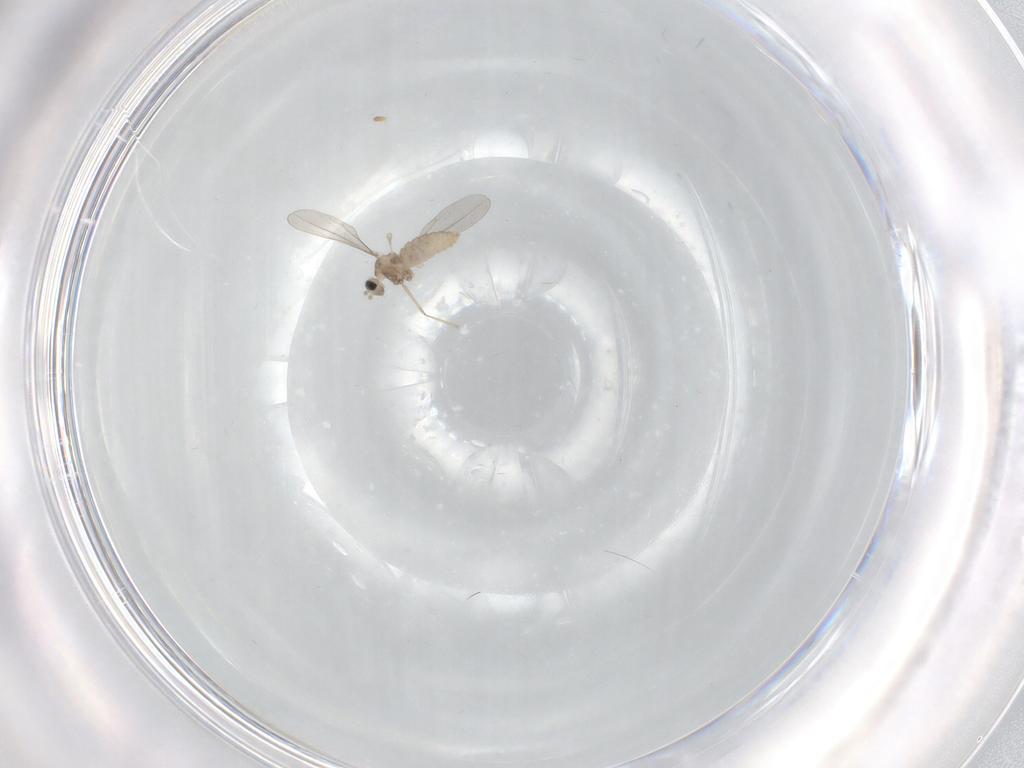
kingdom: Animalia
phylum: Arthropoda
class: Insecta
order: Diptera
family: Cecidomyiidae
